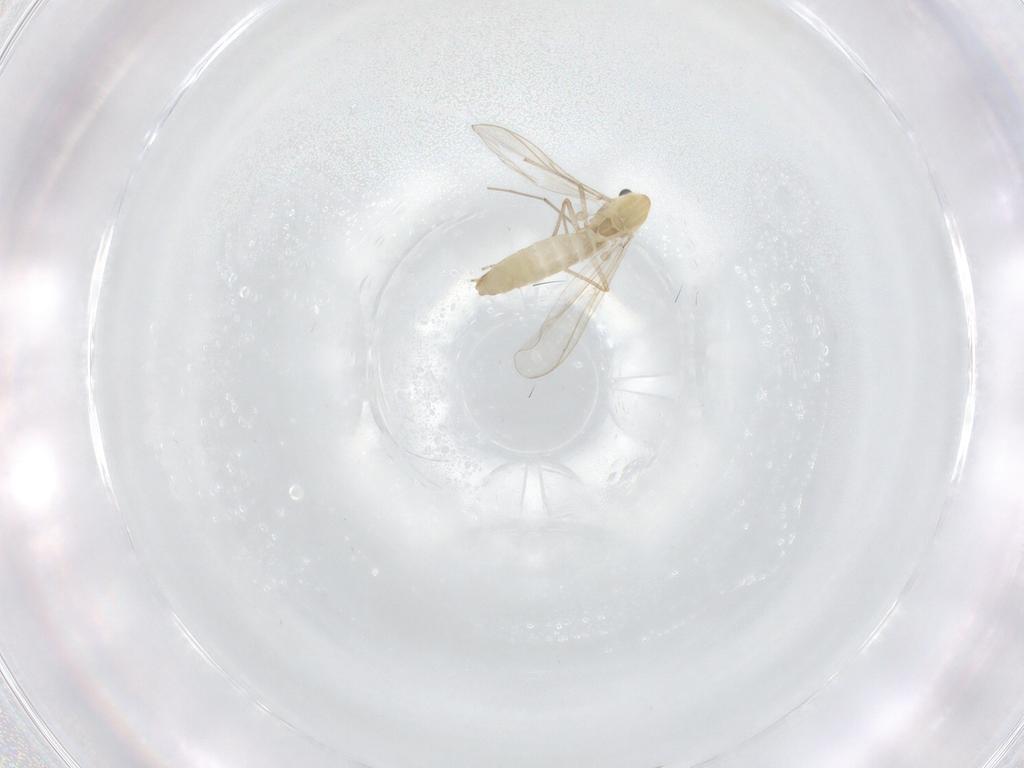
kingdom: Animalia
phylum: Arthropoda
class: Insecta
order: Diptera
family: Chironomidae
